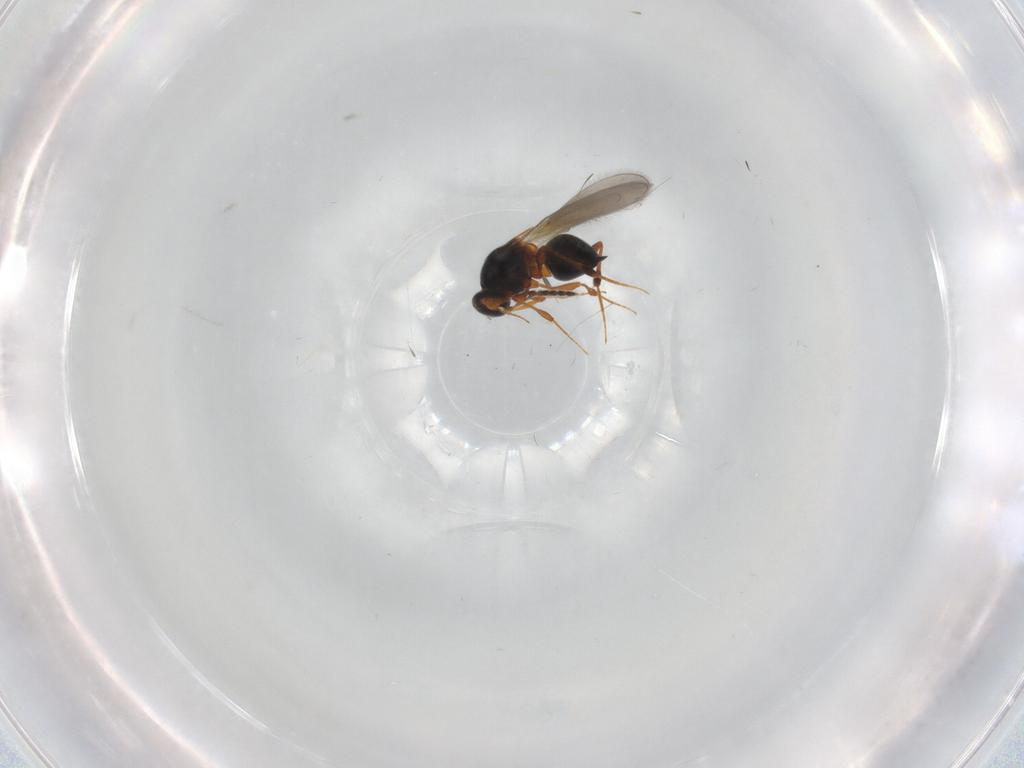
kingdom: Animalia
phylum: Arthropoda
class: Insecta
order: Hymenoptera
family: Platygastridae
